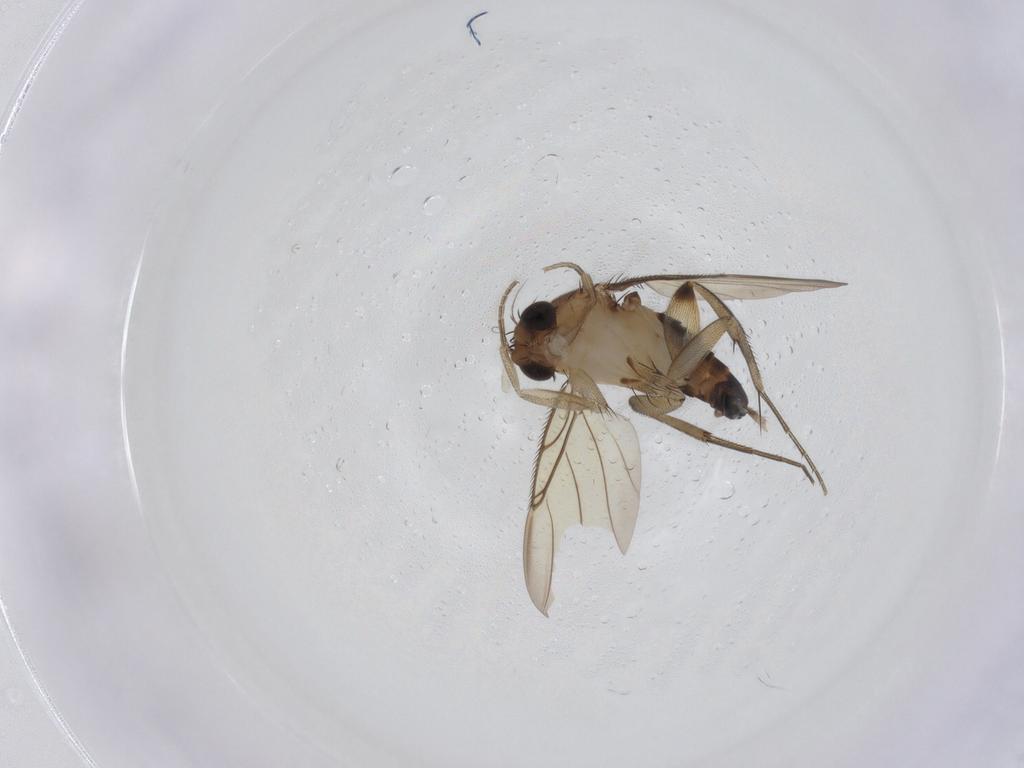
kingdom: Animalia
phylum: Arthropoda
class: Insecta
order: Diptera
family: Phoridae
